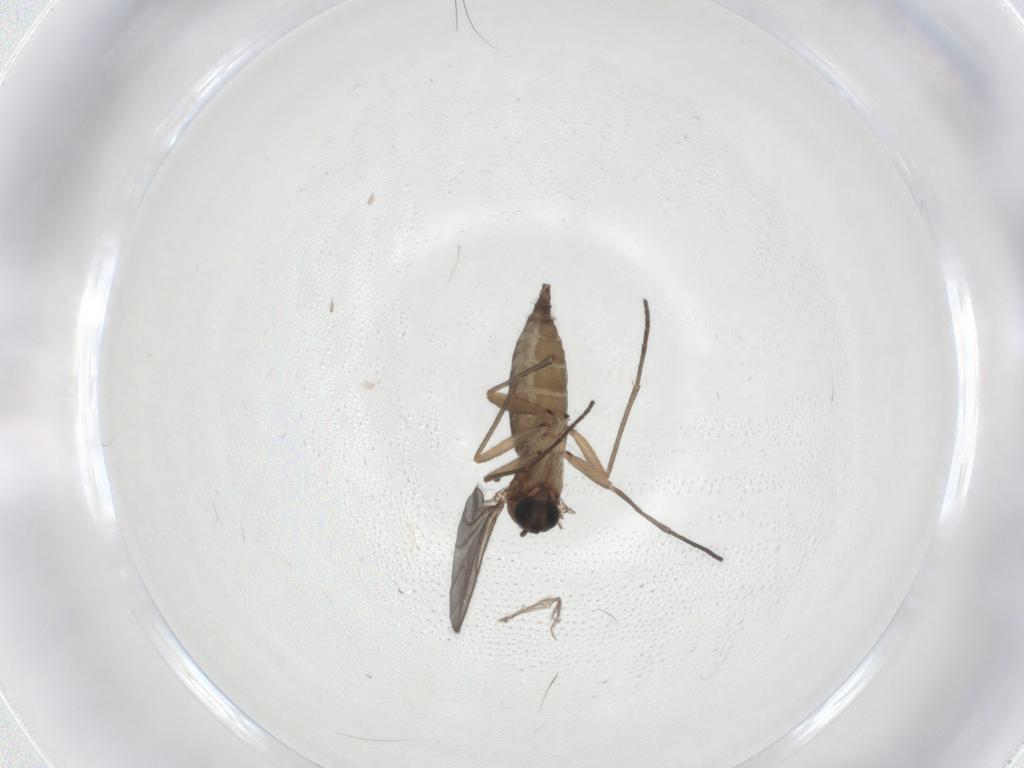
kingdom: Animalia
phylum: Arthropoda
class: Insecta
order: Diptera
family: Cecidomyiidae
